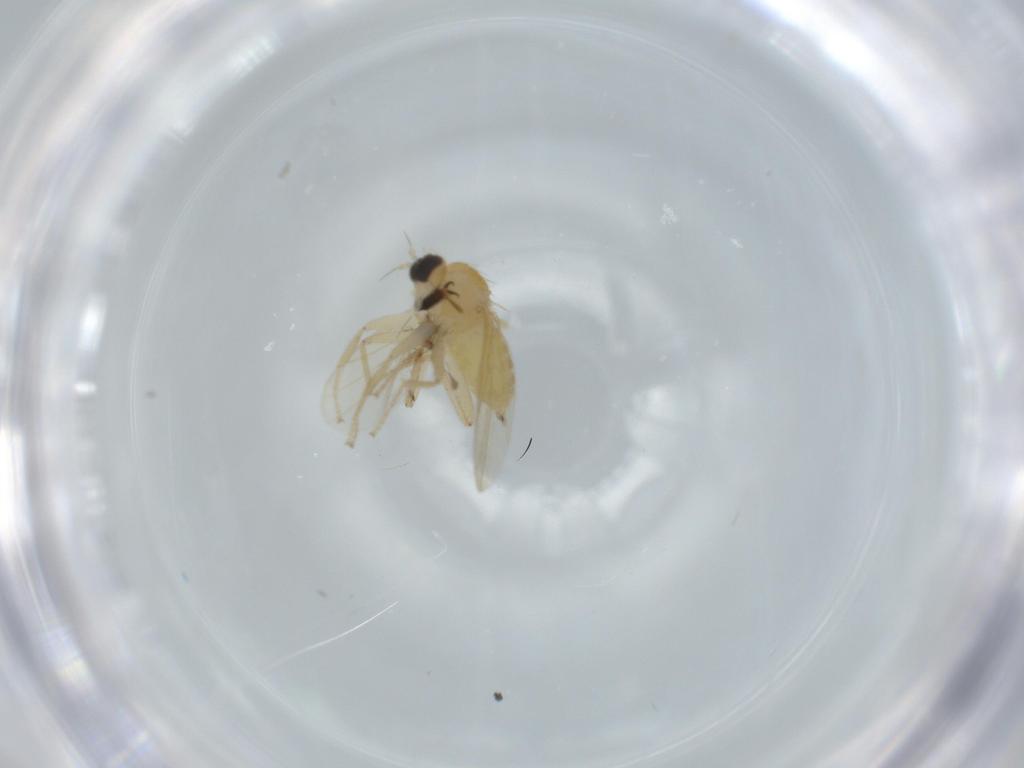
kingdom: Animalia
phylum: Arthropoda
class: Insecta
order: Diptera
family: Hybotidae
